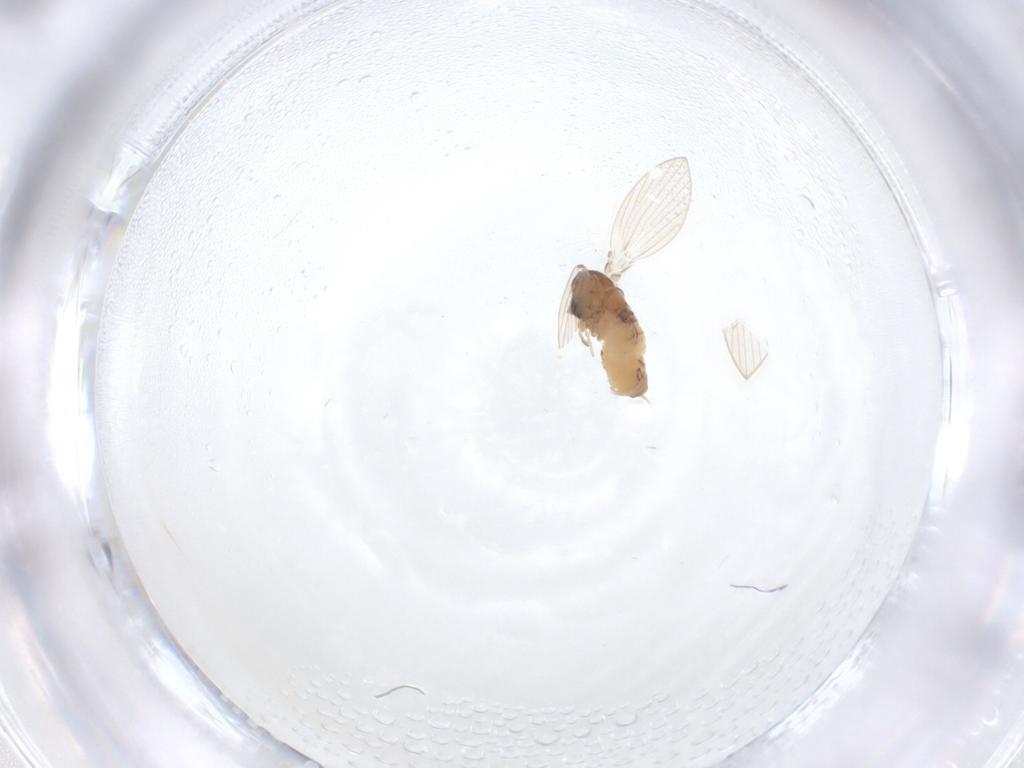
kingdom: Animalia
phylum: Arthropoda
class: Insecta
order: Diptera
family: Psychodidae
